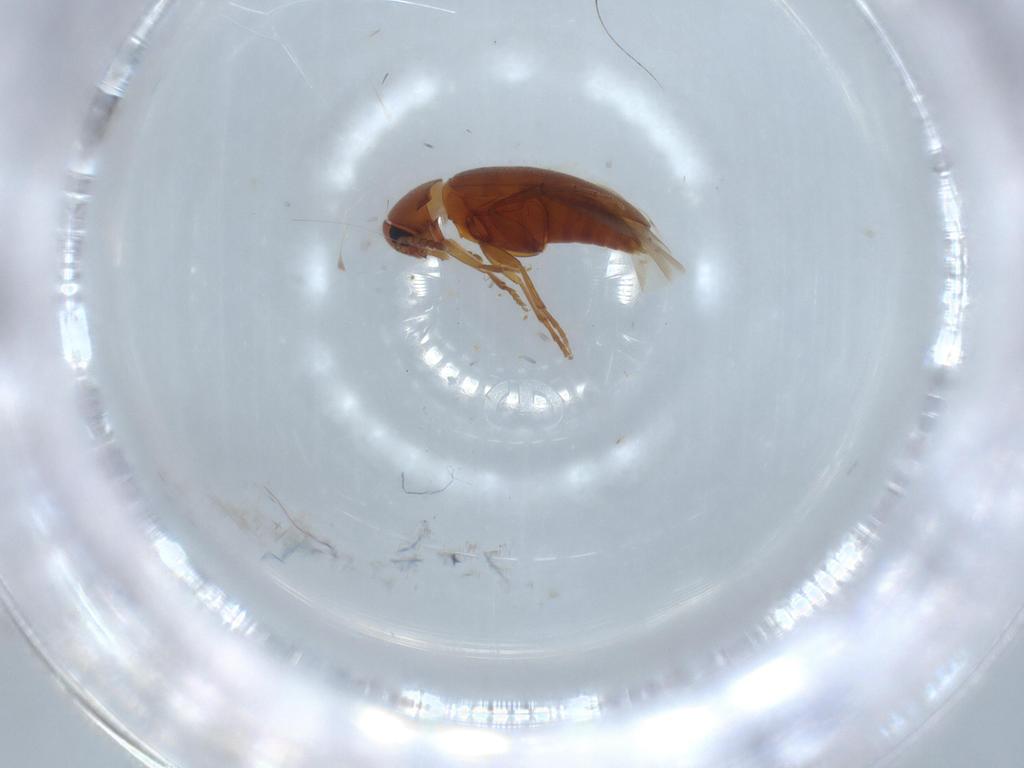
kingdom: Animalia
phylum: Arthropoda
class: Insecta
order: Coleoptera
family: Scraptiidae
